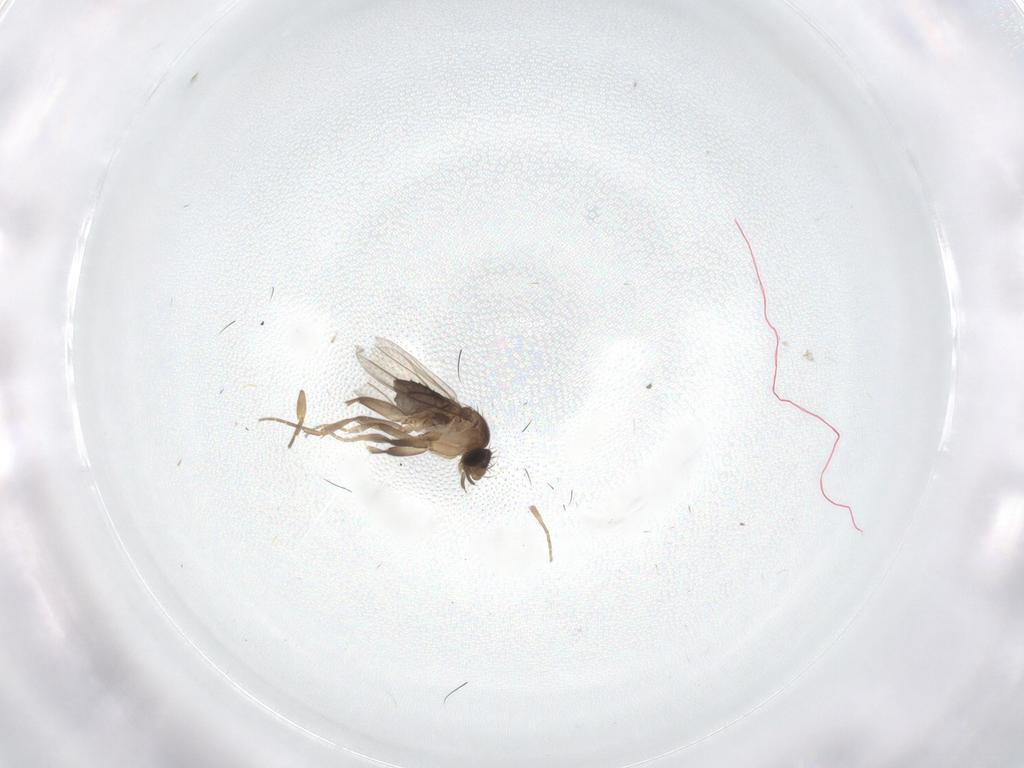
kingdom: Animalia
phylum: Arthropoda
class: Insecta
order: Diptera
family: Phoridae
